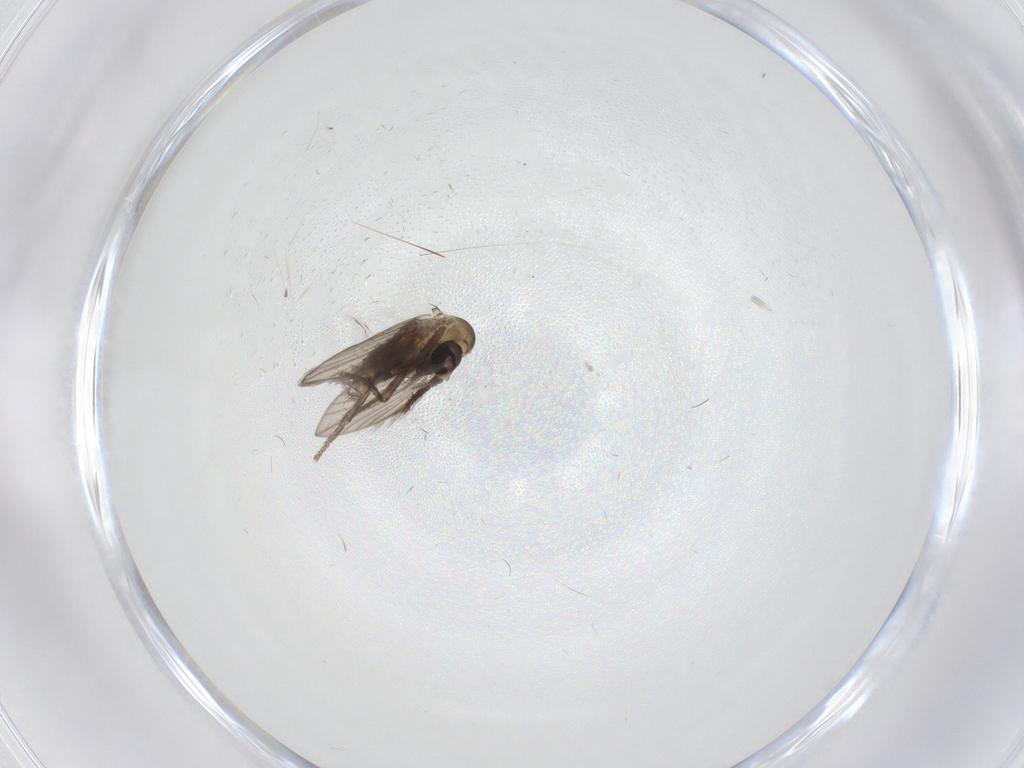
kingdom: Animalia
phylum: Arthropoda
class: Insecta
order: Diptera
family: Psychodidae
